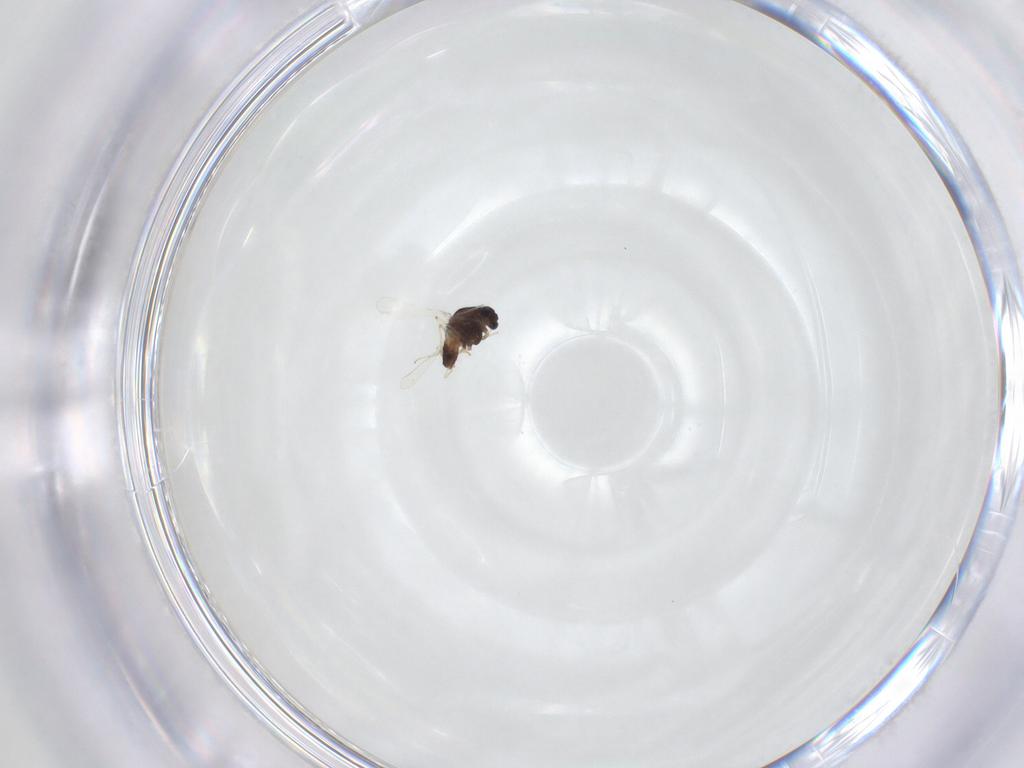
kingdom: Animalia
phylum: Arthropoda
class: Insecta
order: Diptera
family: Chironomidae
